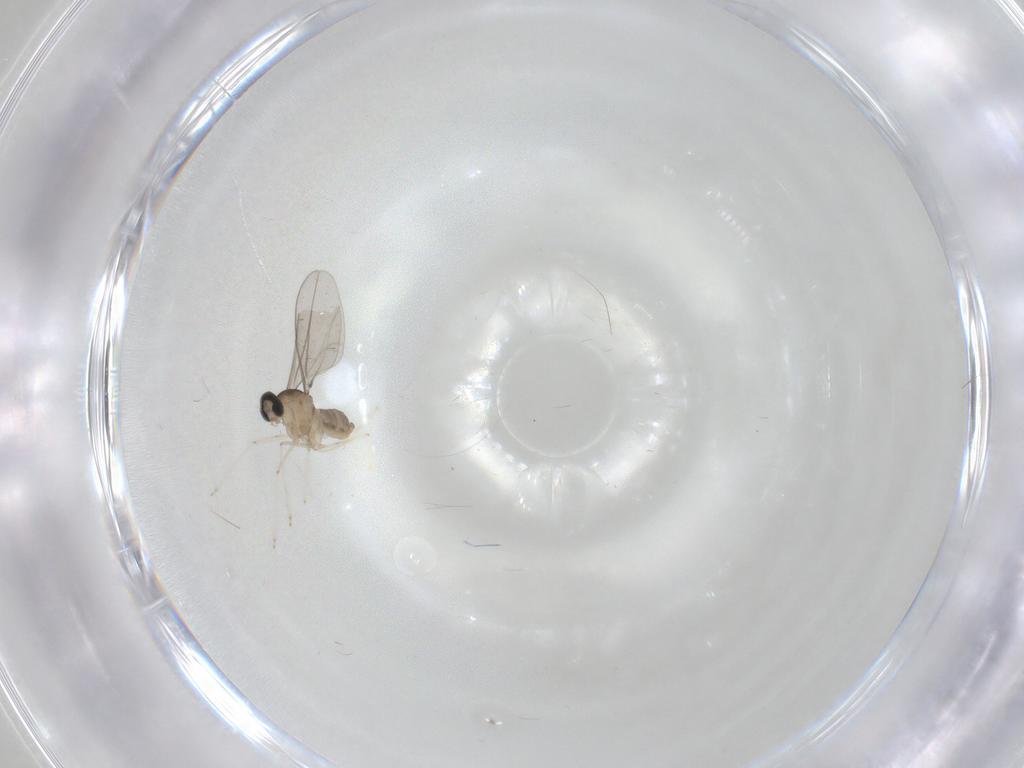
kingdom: Animalia
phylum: Arthropoda
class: Insecta
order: Diptera
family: Cecidomyiidae
